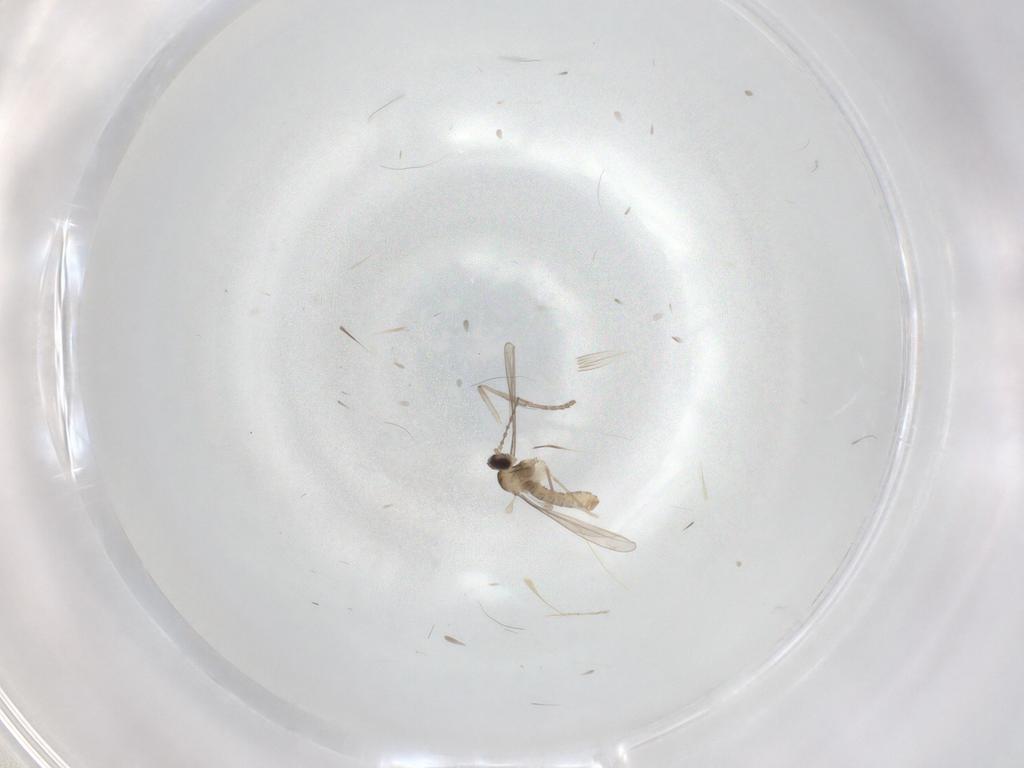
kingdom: Animalia
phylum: Arthropoda
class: Insecta
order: Diptera
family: Cecidomyiidae
